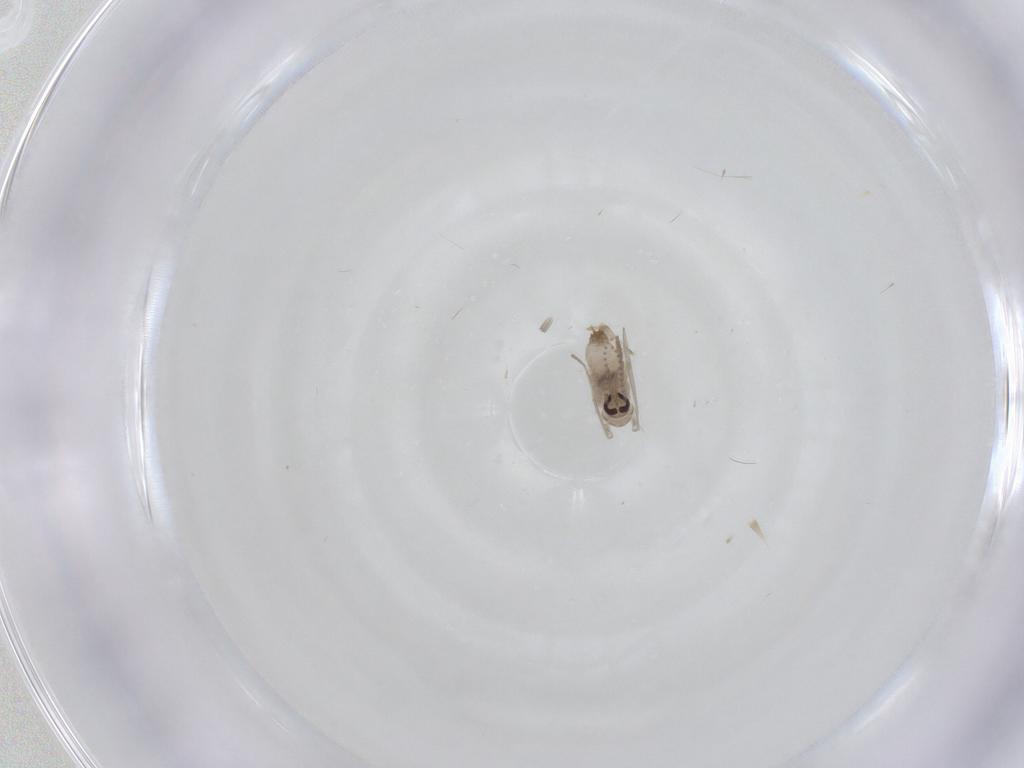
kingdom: Animalia
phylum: Arthropoda
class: Insecta
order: Diptera
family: Psychodidae
